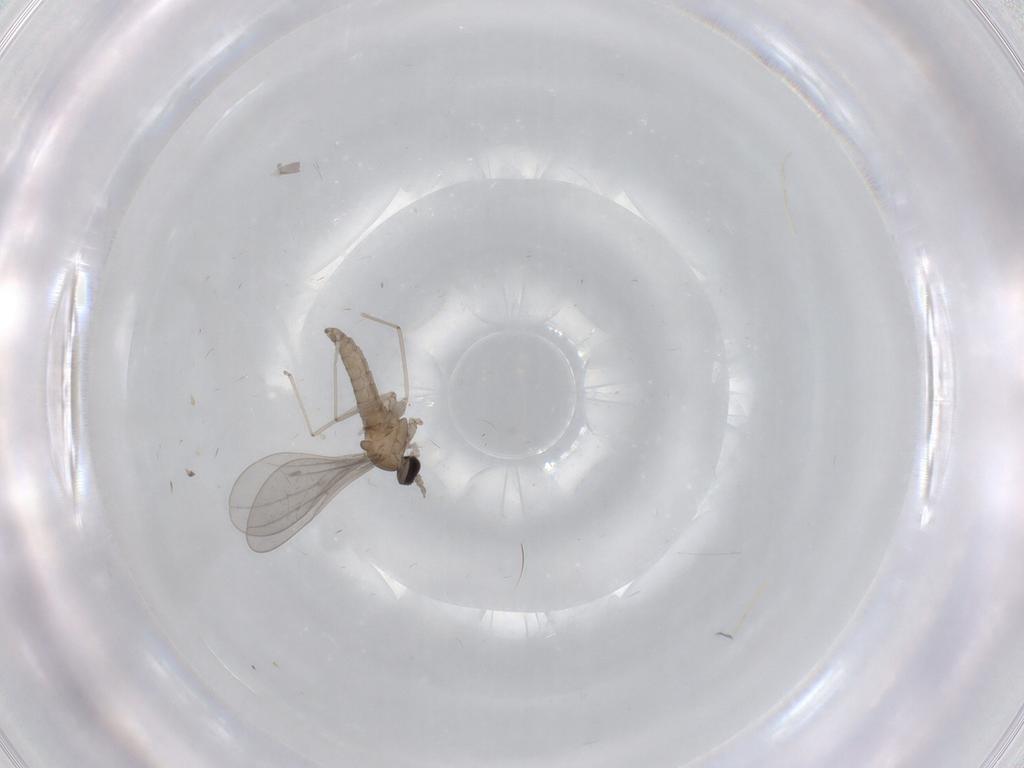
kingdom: Animalia
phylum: Arthropoda
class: Insecta
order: Diptera
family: Cecidomyiidae
